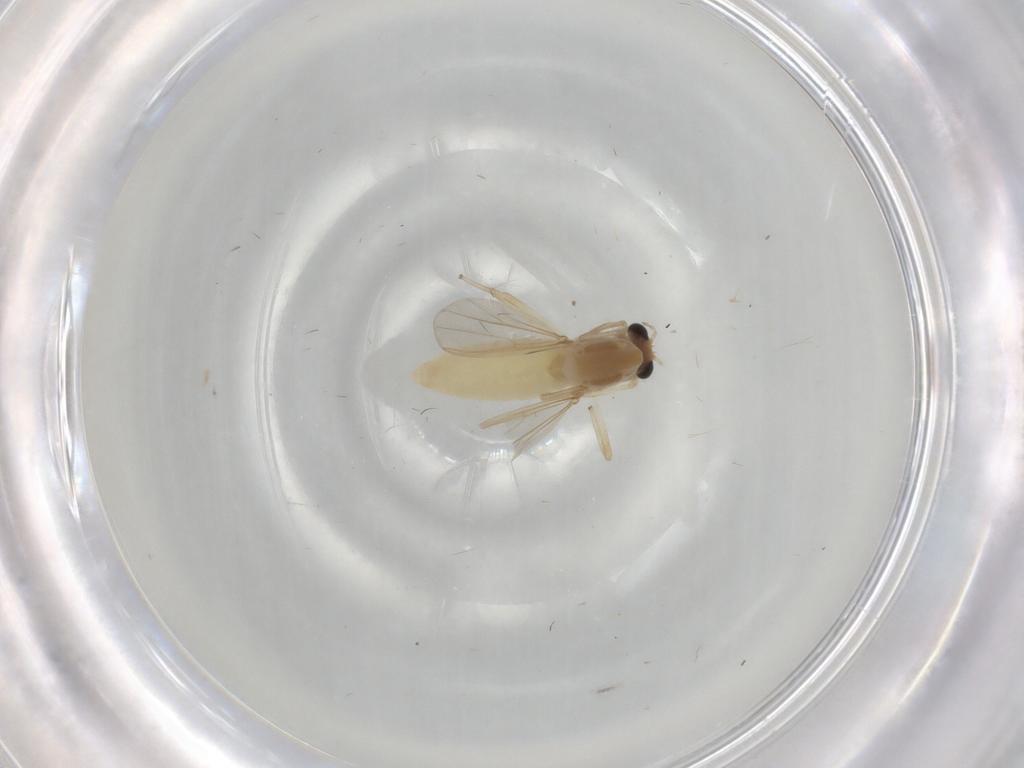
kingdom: Animalia
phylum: Arthropoda
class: Insecta
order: Diptera
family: Chironomidae
